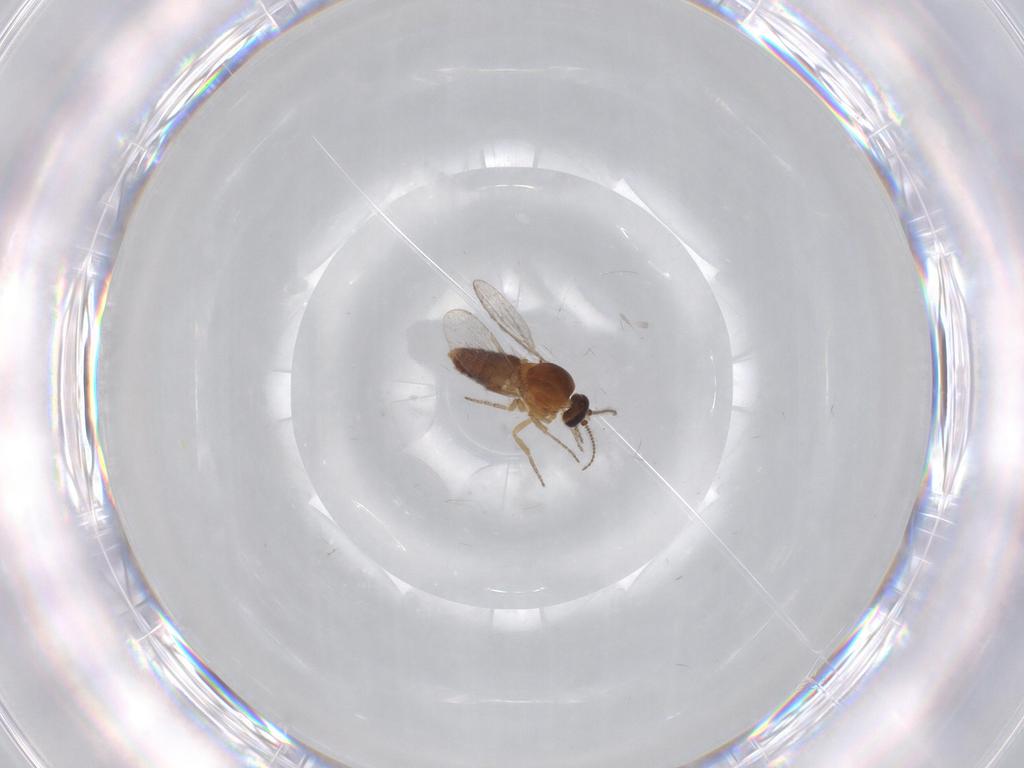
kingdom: Animalia
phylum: Arthropoda
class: Insecta
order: Diptera
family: Ceratopogonidae
